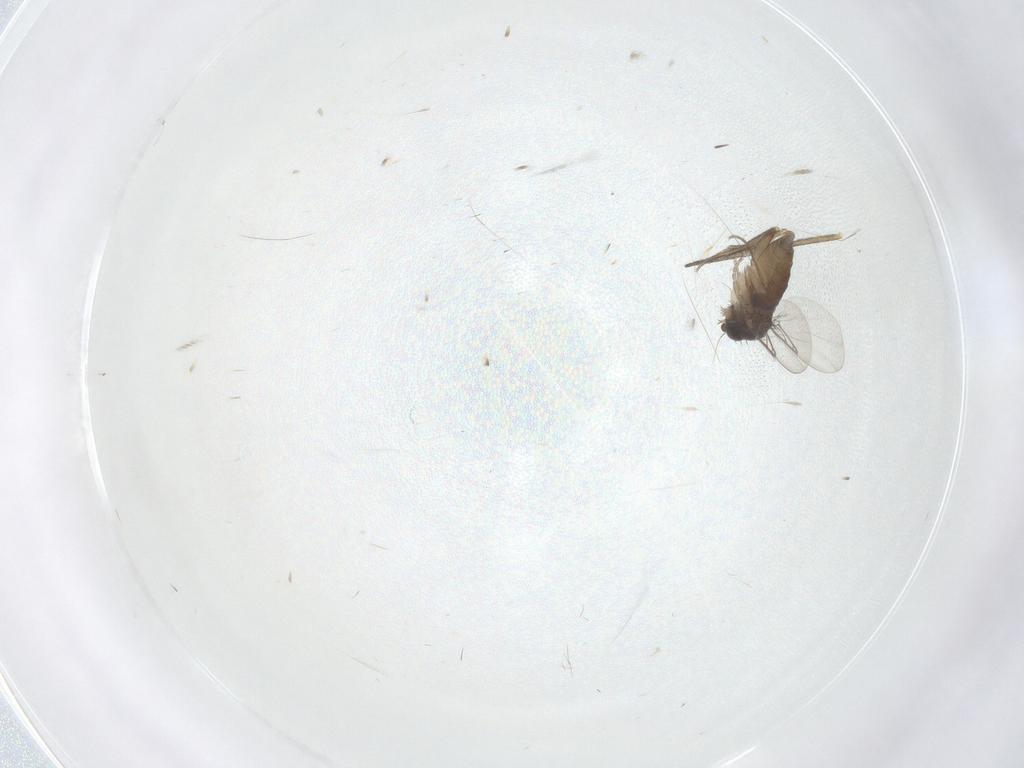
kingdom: Animalia
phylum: Arthropoda
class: Insecta
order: Diptera
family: Phoridae
